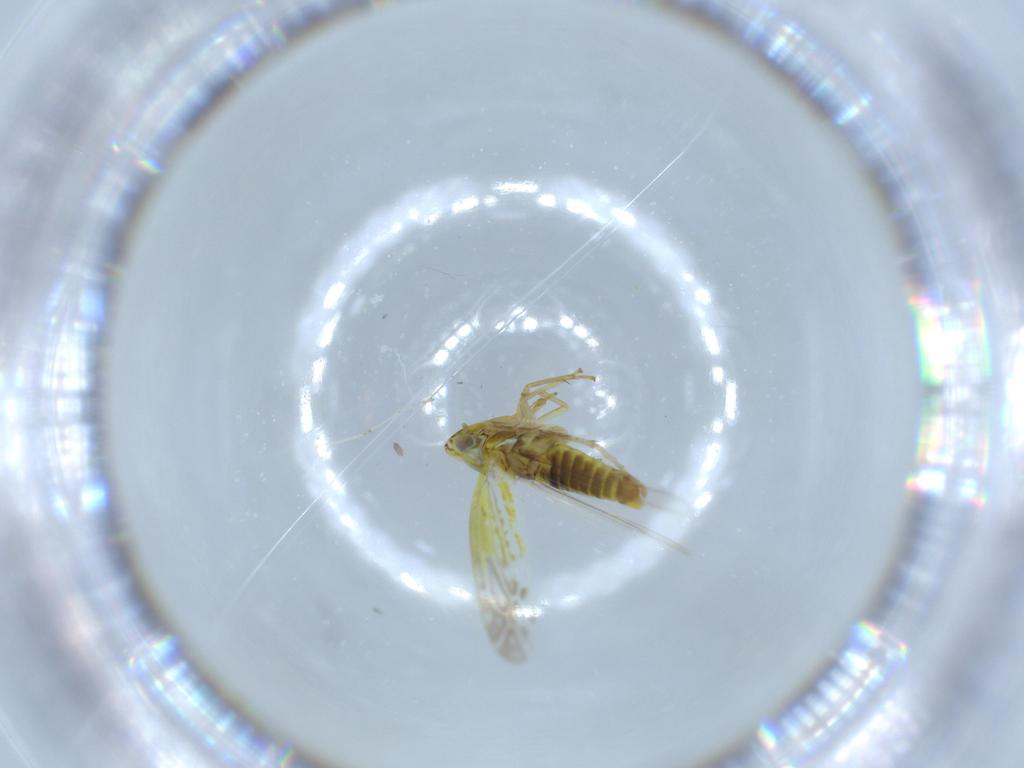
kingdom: Animalia
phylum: Arthropoda
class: Insecta
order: Hemiptera
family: Cicadellidae
